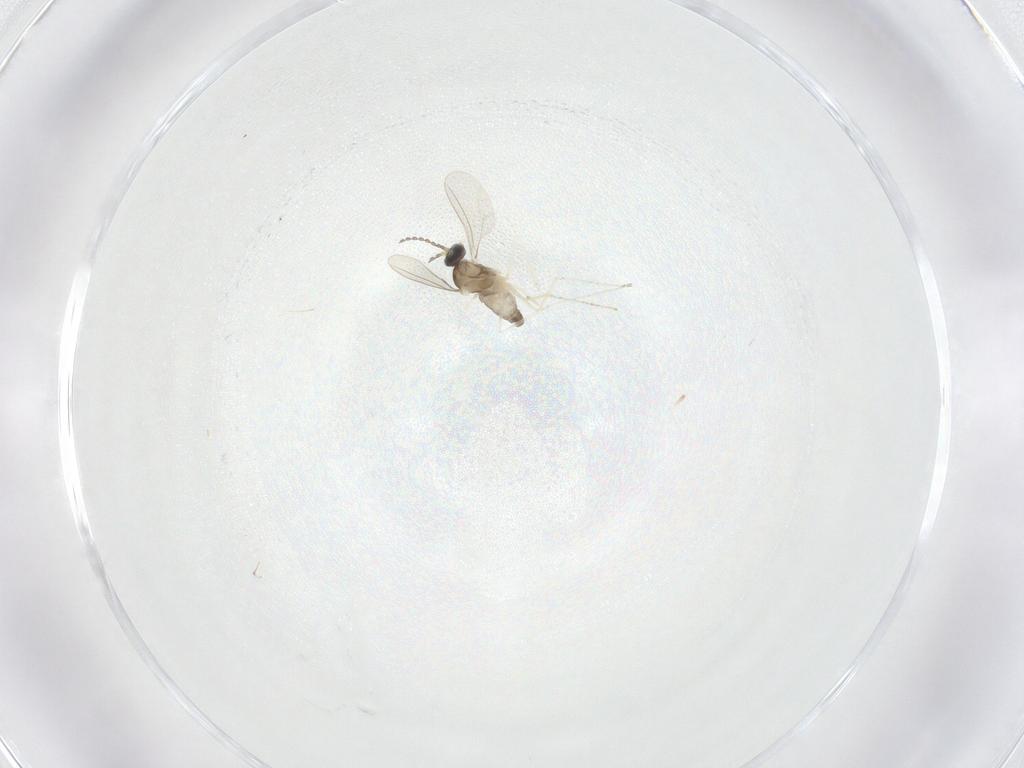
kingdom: Animalia
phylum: Arthropoda
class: Insecta
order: Diptera
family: Cecidomyiidae
